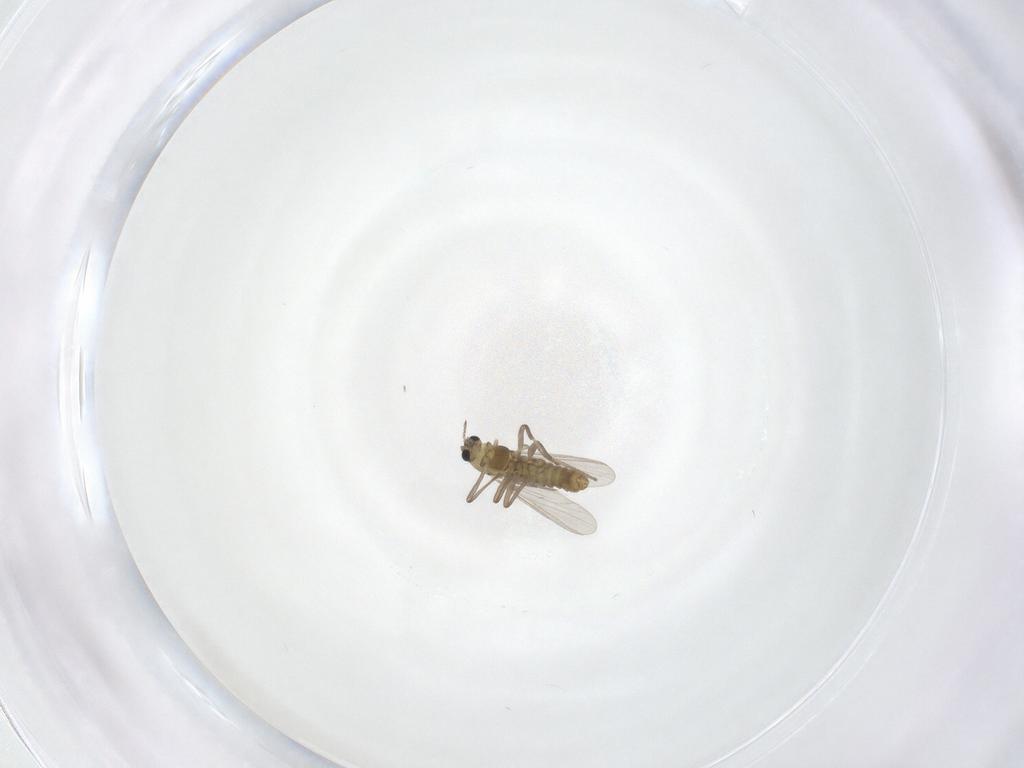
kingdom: Animalia
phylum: Arthropoda
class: Insecta
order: Diptera
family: Chironomidae
